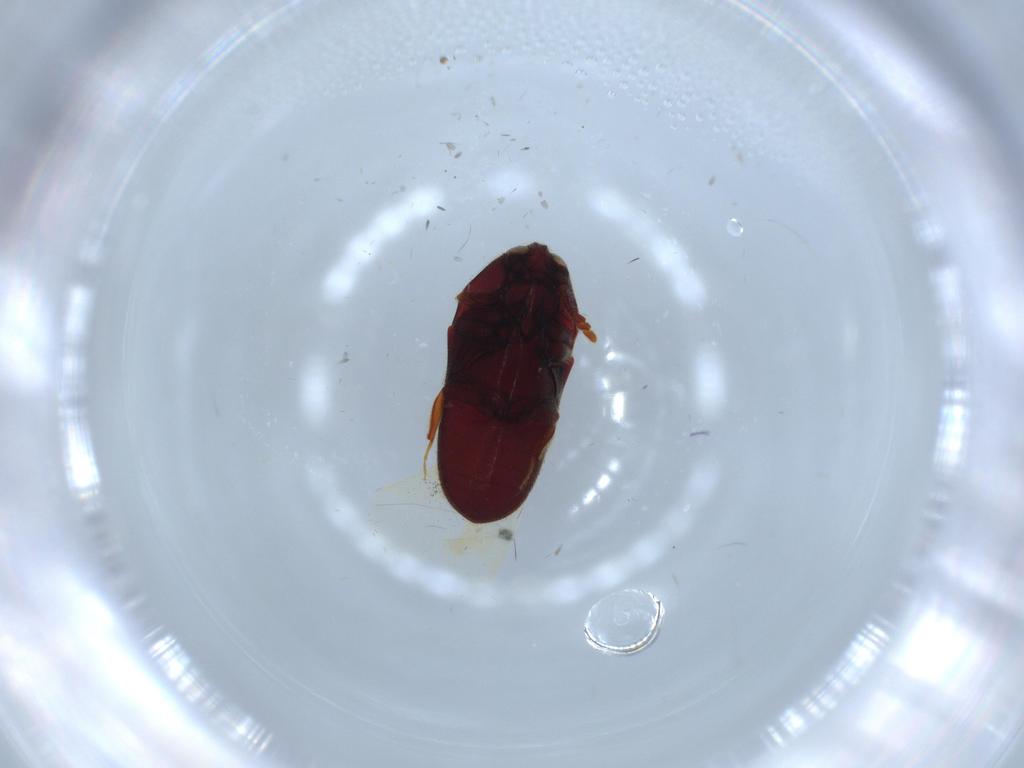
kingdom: Animalia
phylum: Arthropoda
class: Insecta
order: Coleoptera
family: Throscidae
